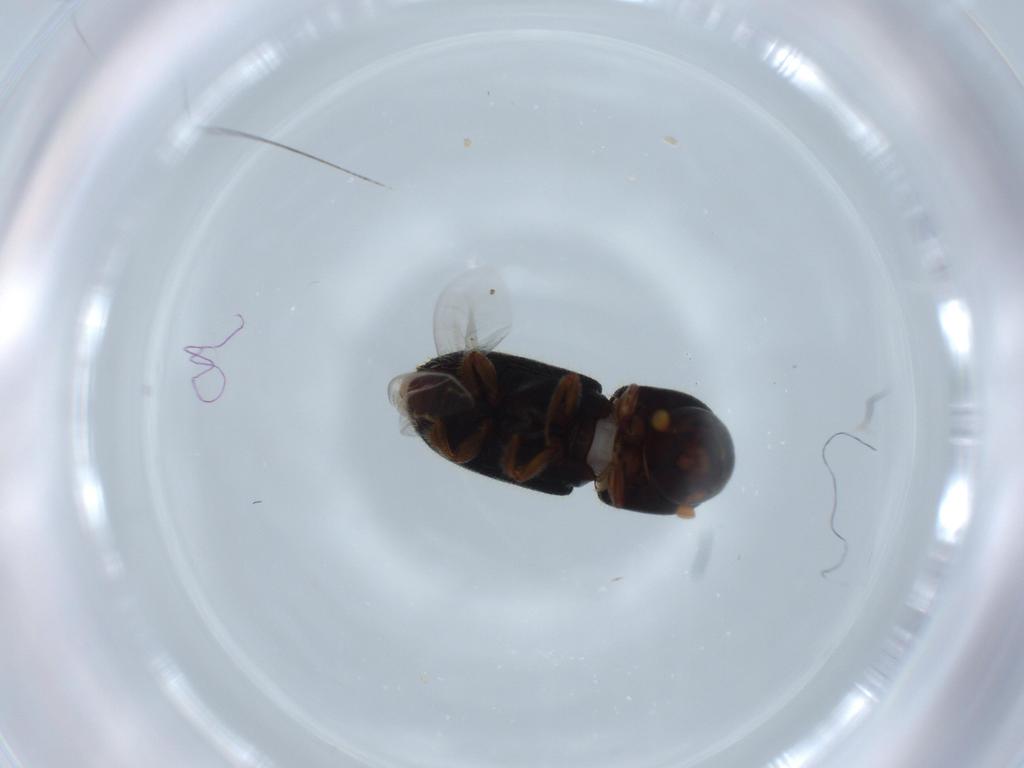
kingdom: Animalia
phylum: Arthropoda
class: Insecta
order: Coleoptera
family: Curculionidae
